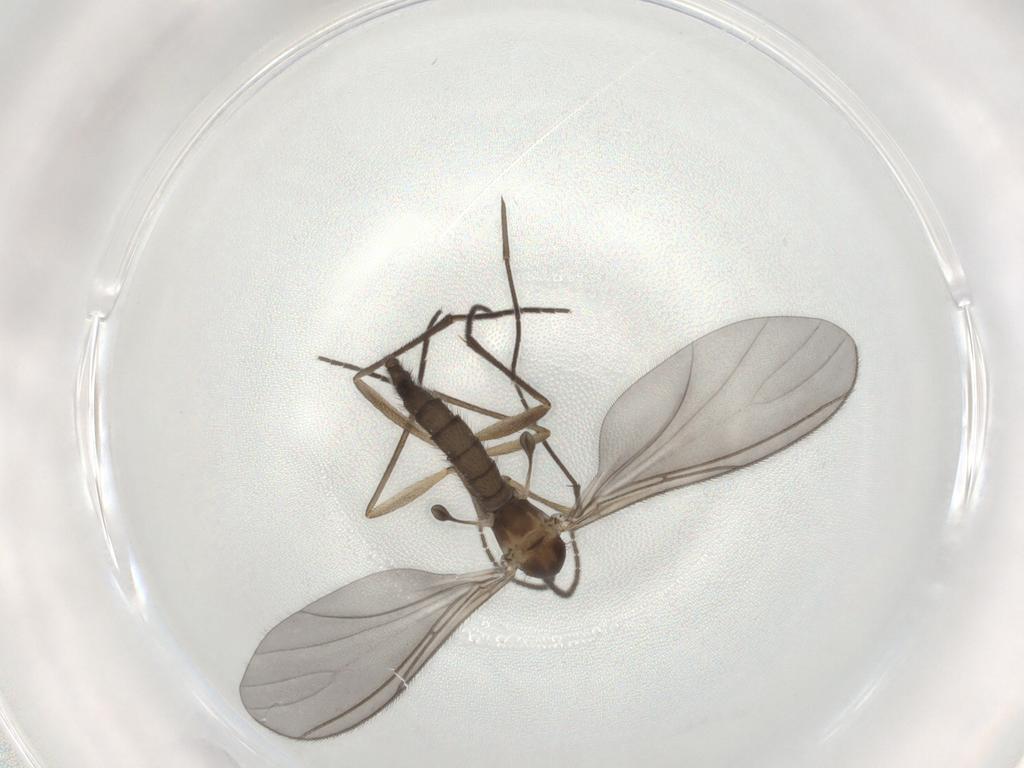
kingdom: Animalia
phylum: Arthropoda
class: Insecta
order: Diptera
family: Sciaridae
